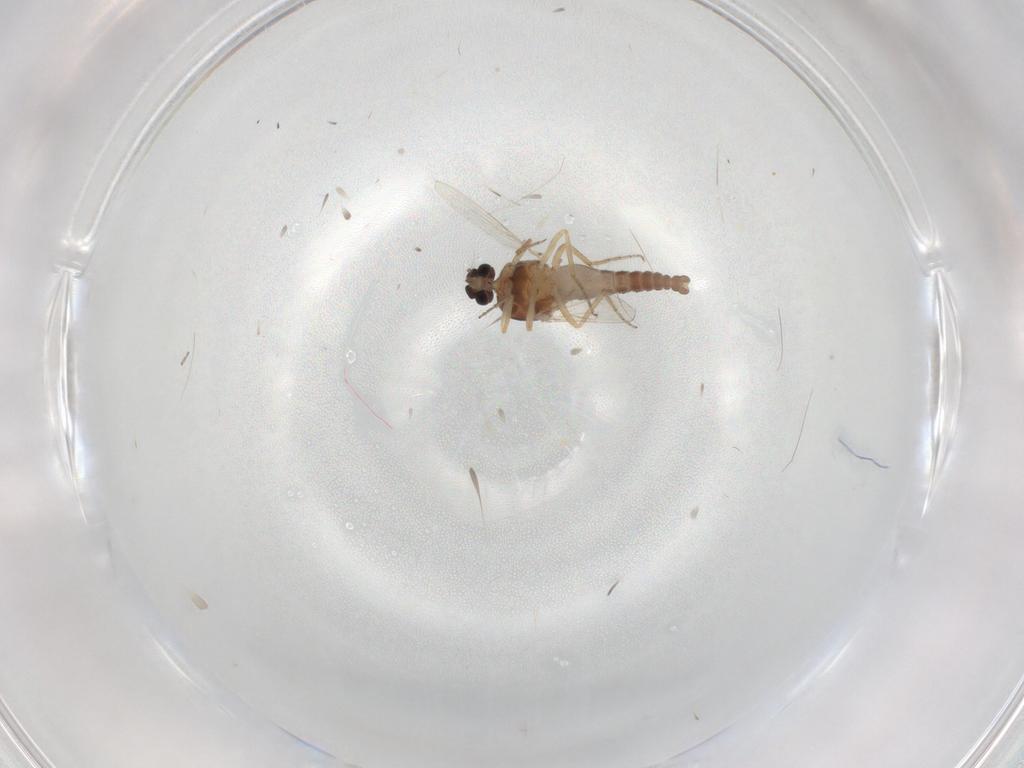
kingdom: Animalia
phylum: Arthropoda
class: Insecta
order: Diptera
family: Ceratopogonidae
